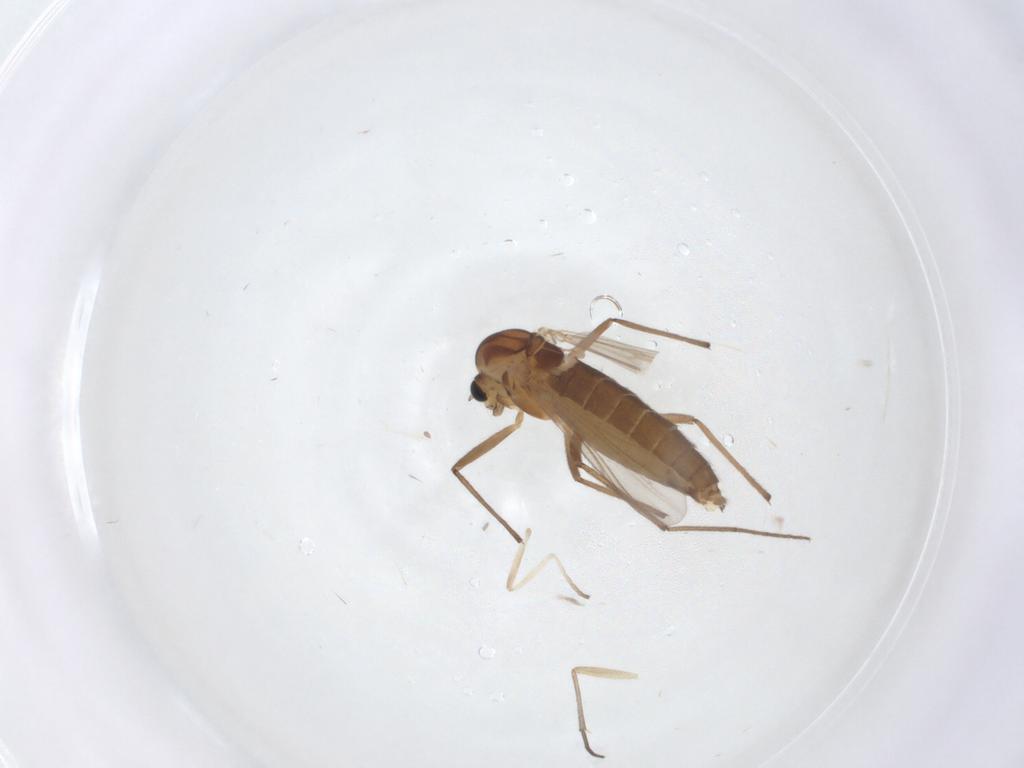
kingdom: Animalia
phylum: Arthropoda
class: Insecta
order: Diptera
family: Chironomidae
